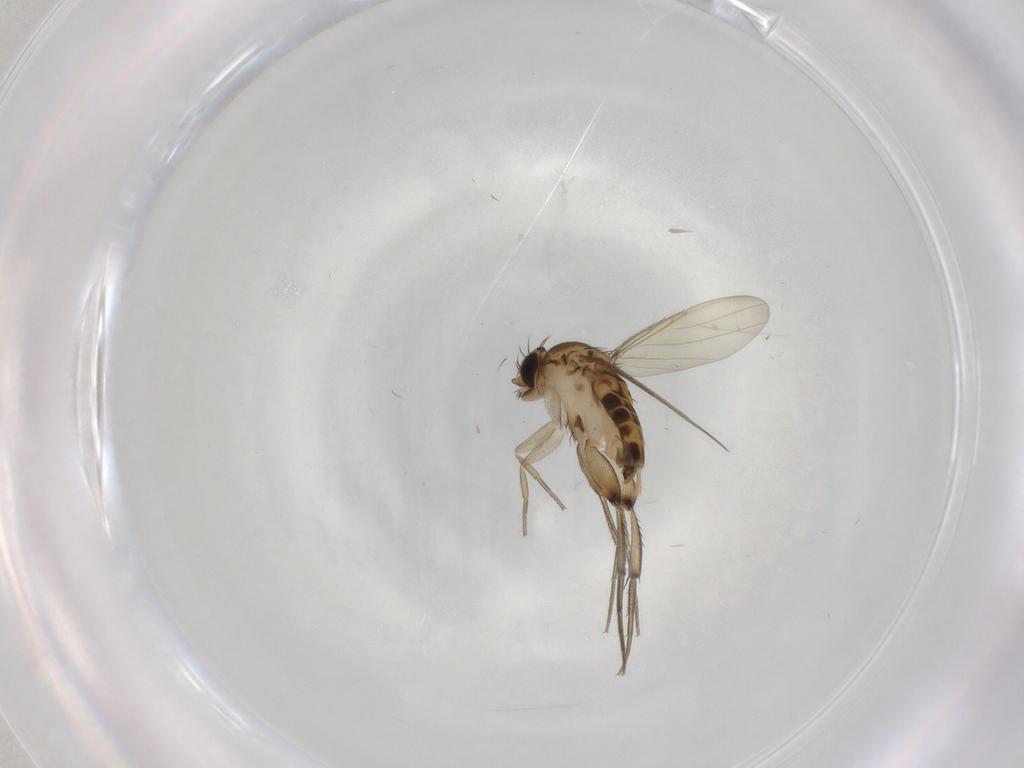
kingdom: Animalia
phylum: Arthropoda
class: Insecta
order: Diptera
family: Phoridae
